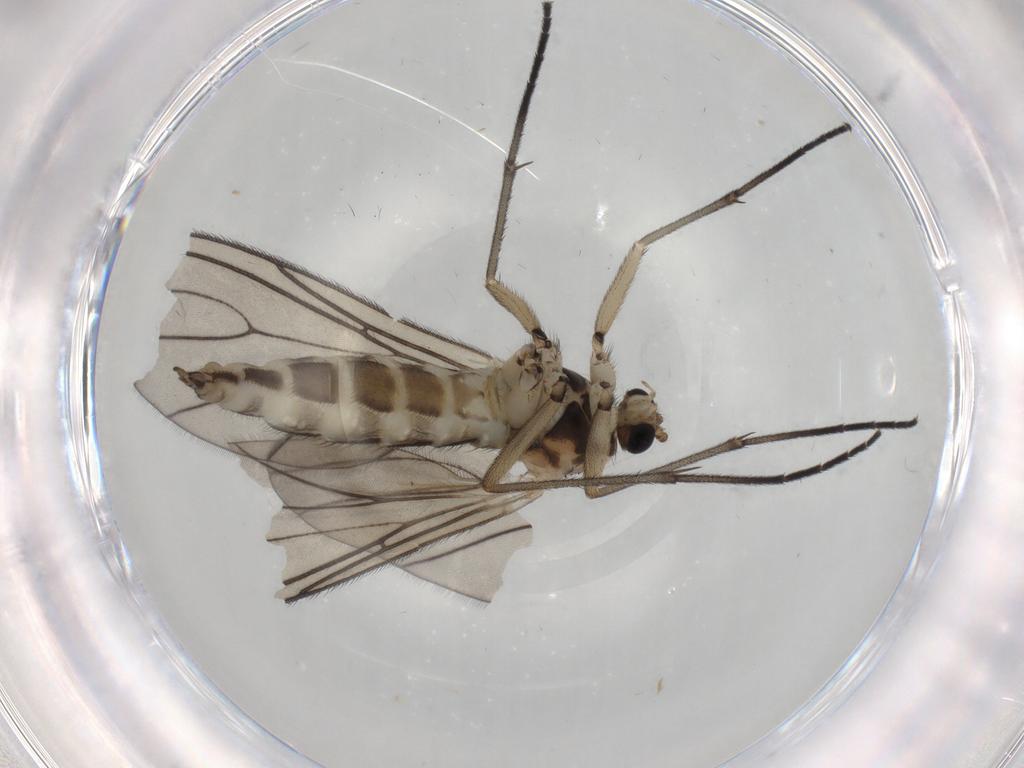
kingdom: Animalia
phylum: Arthropoda
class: Insecta
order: Diptera
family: Sciaridae
